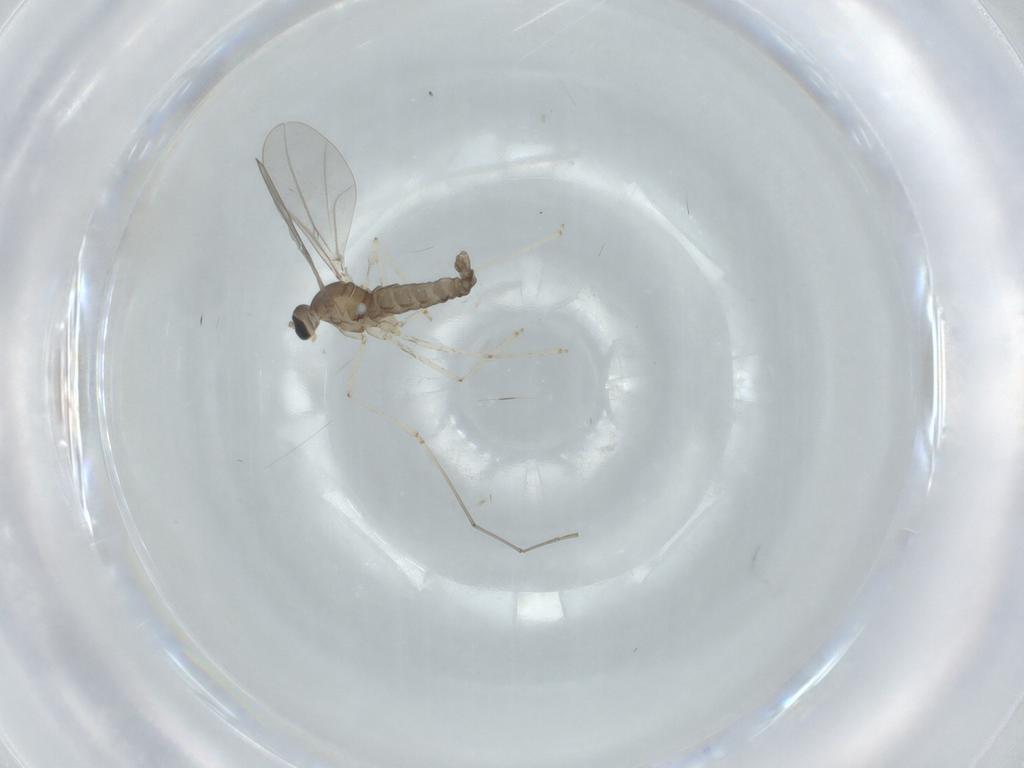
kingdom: Animalia
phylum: Arthropoda
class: Insecta
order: Diptera
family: Cecidomyiidae
